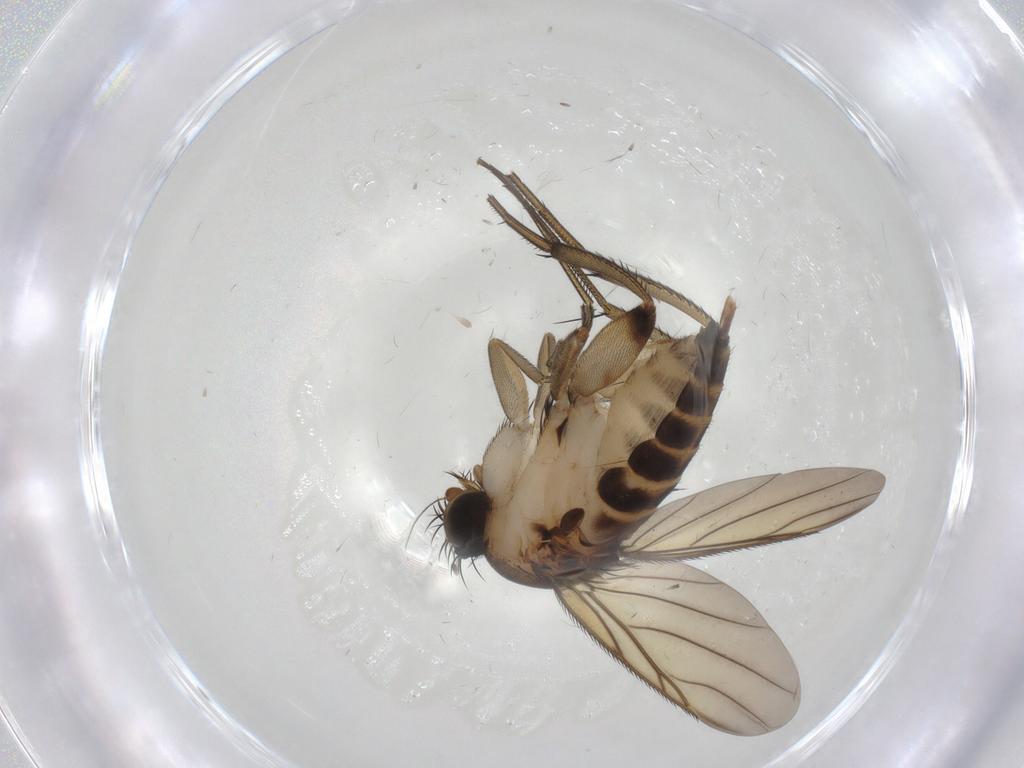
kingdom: Animalia
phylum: Arthropoda
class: Insecta
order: Diptera
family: Phoridae
